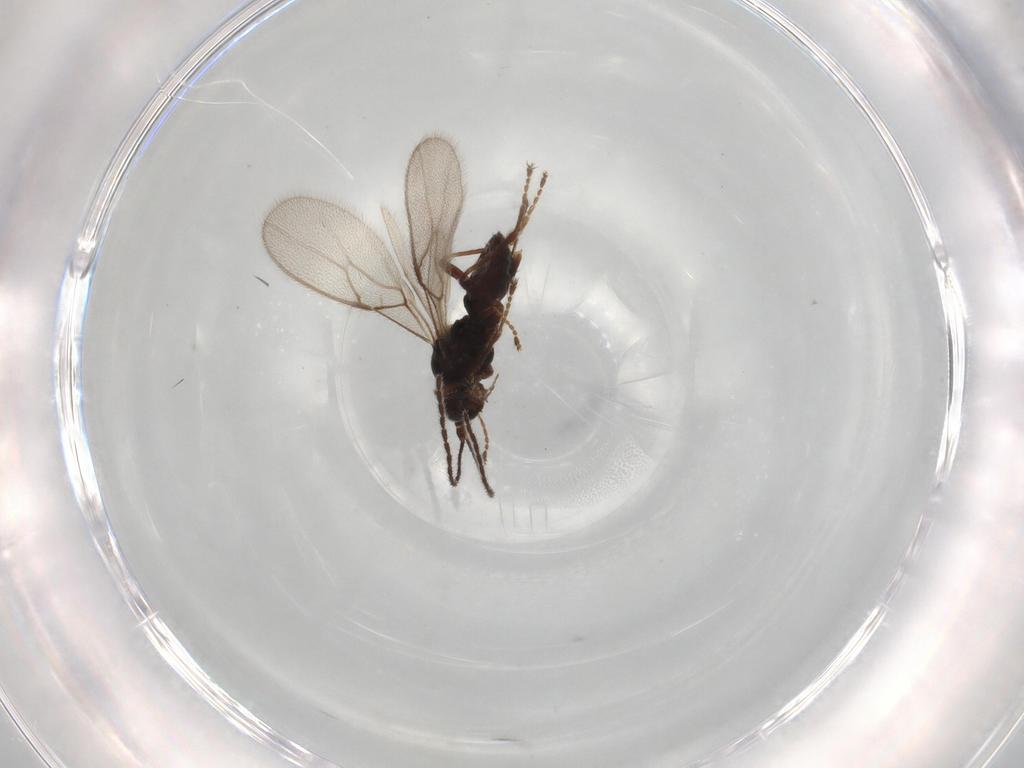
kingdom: Animalia
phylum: Arthropoda
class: Insecta
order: Hymenoptera
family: Braconidae
